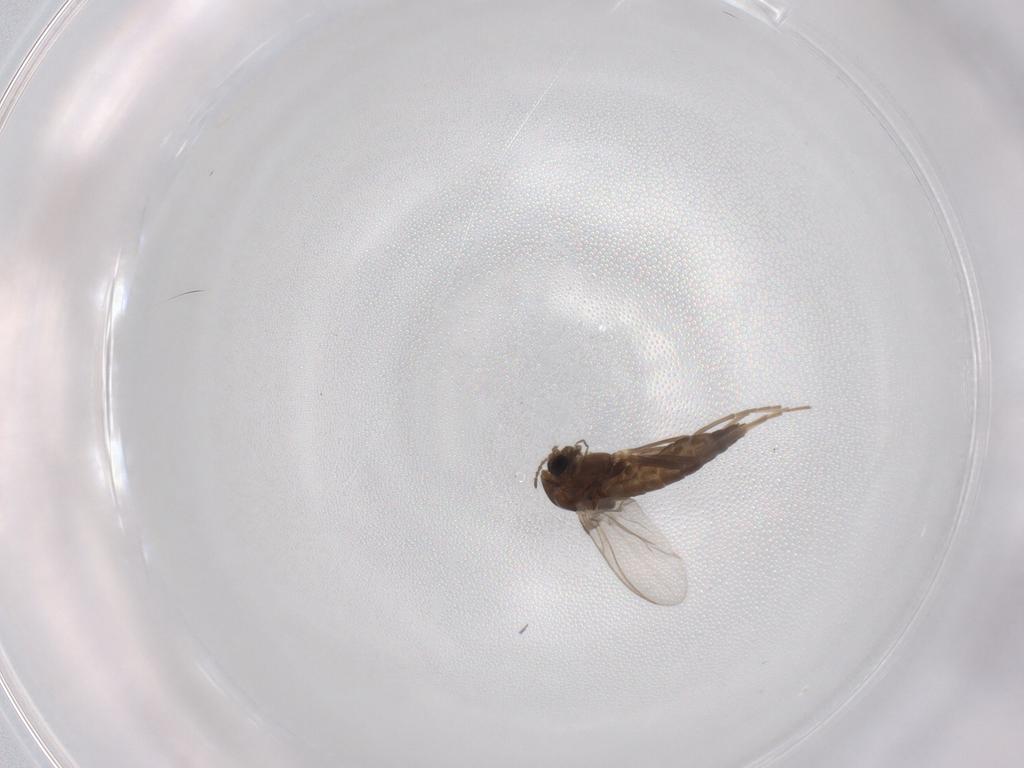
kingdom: Animalia
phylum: Arthropoda
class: Insecta
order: Diptera
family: Chironomidae
